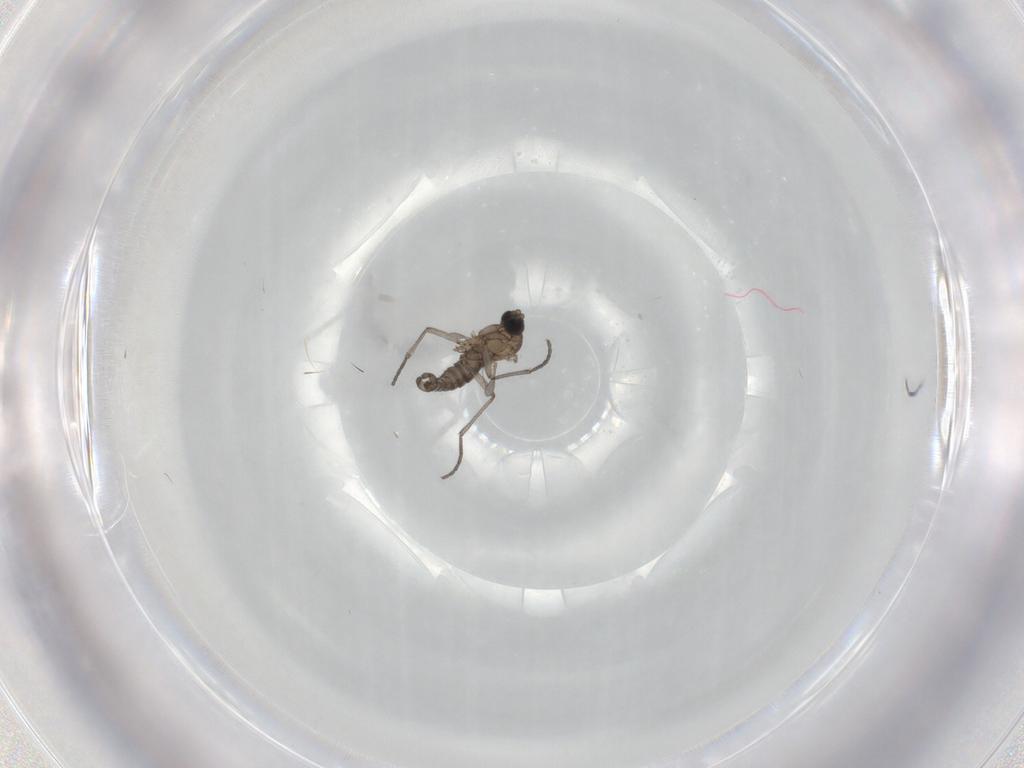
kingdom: Animalia
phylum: Arthropoda
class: Insecta
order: Diptera
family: Sciaridae
